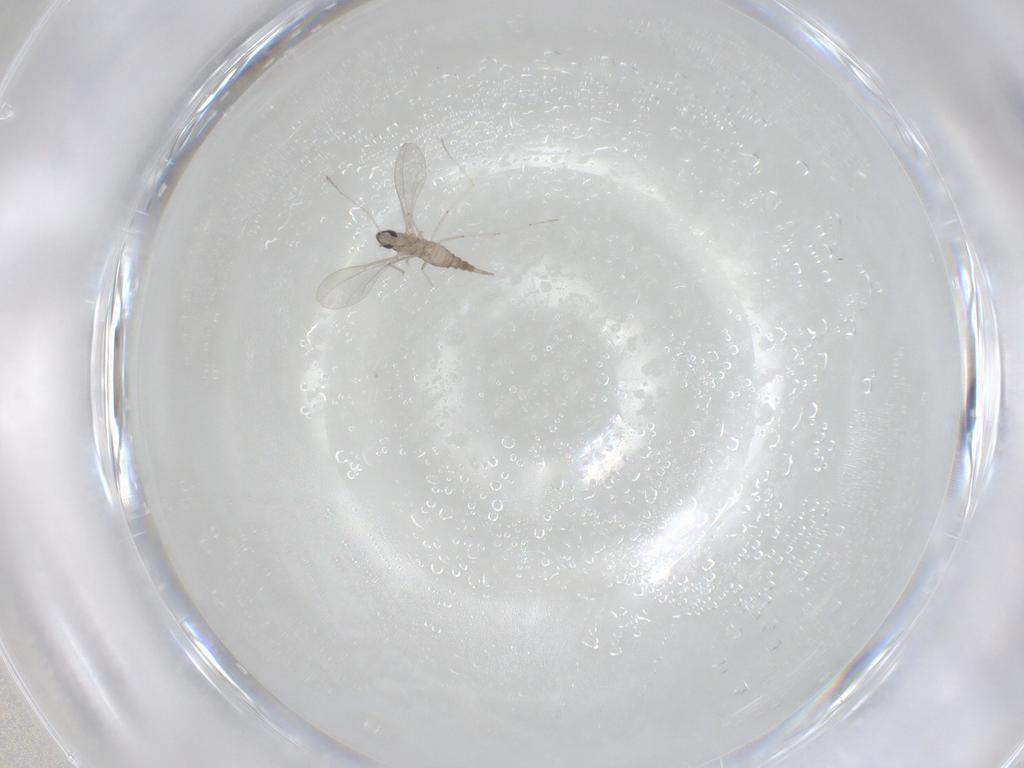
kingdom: Animalia
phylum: Arthropoda
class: Insecta
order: Diptera
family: Cecidomyiidae
